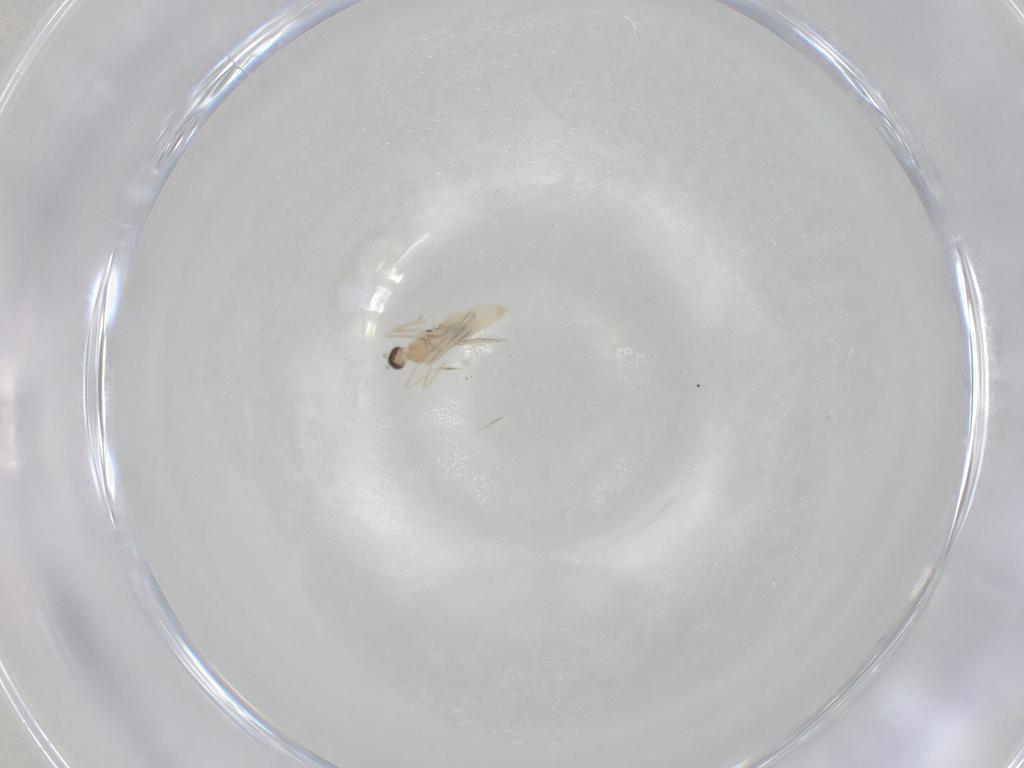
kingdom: Animalia
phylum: Arthropoda
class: Insecta
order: Diptera
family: Cecidomyiidae
